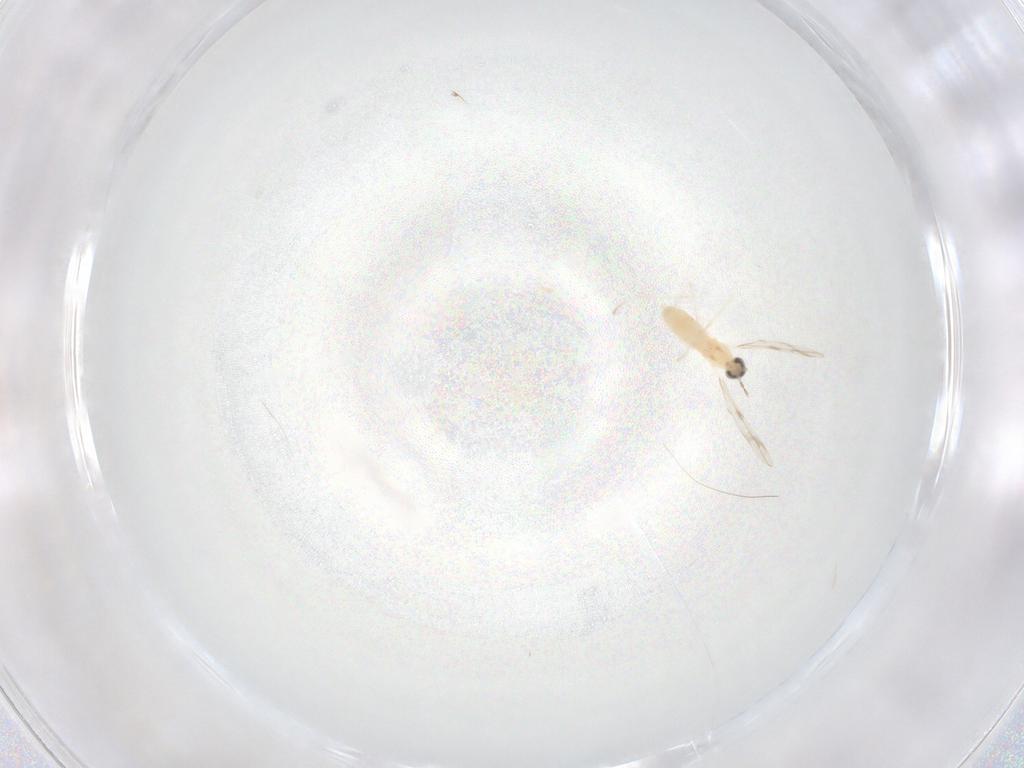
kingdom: Animalia
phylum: Arthropoda
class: Insecta
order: Diptera
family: Cecidomyiidae
